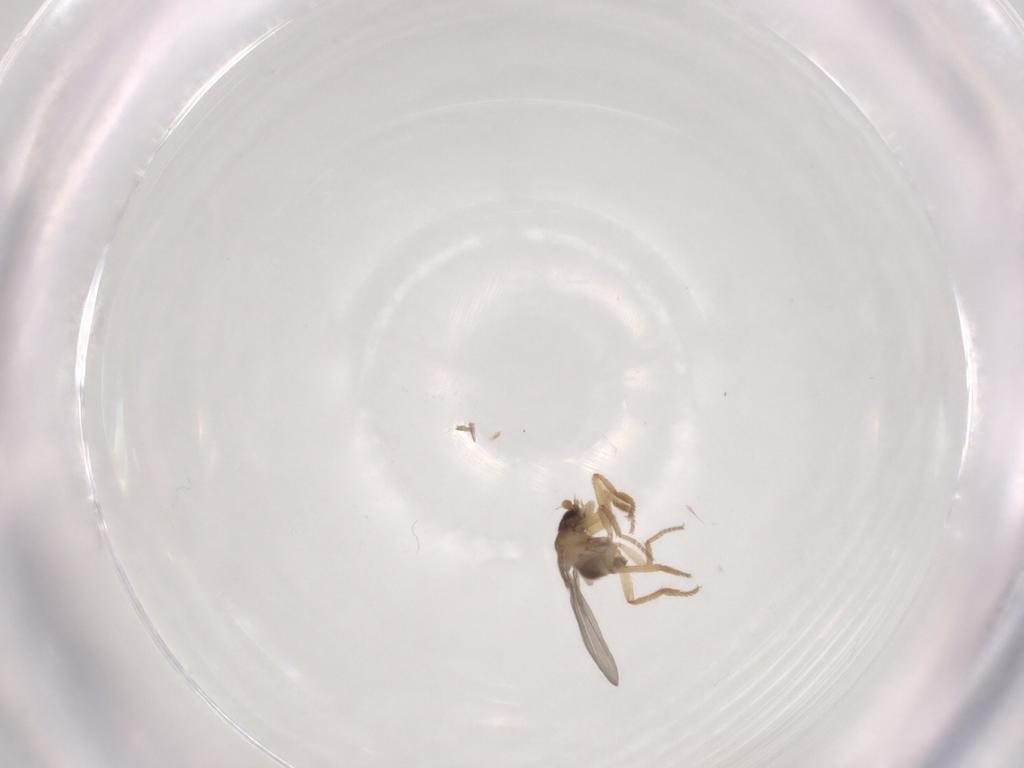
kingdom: Animalia
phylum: Arthropoda
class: Insecta
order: Diptera
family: Phoridae
